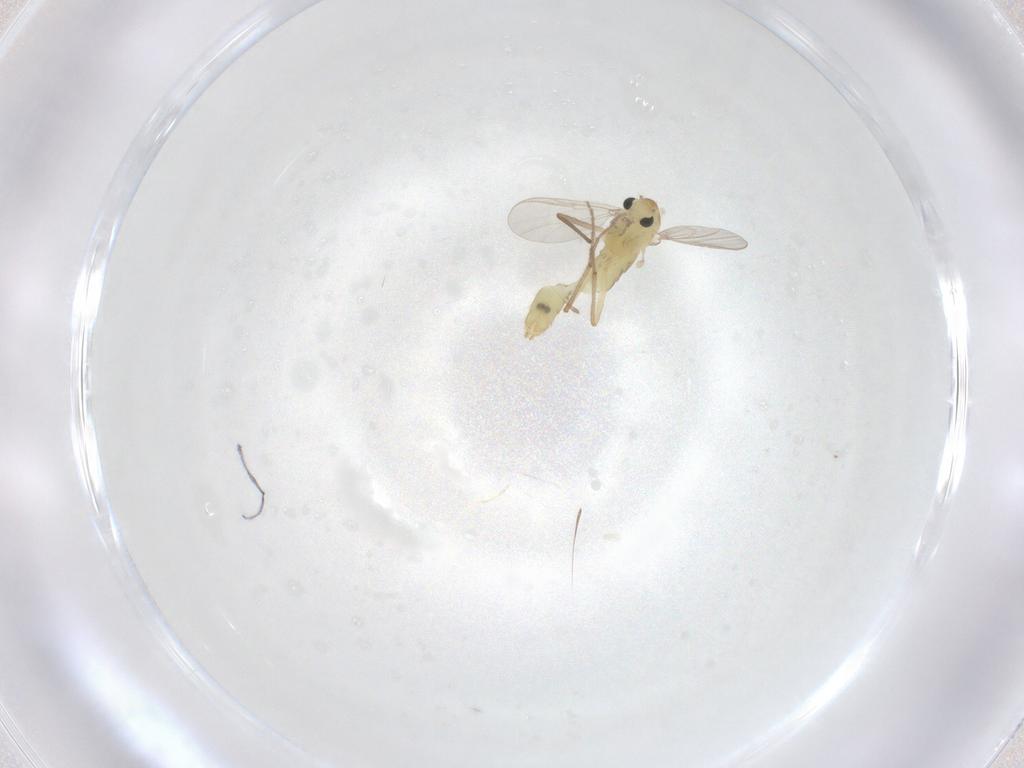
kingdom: Animalia
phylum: Arthropoda
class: Insecta
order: Diptera
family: Chironomidae
